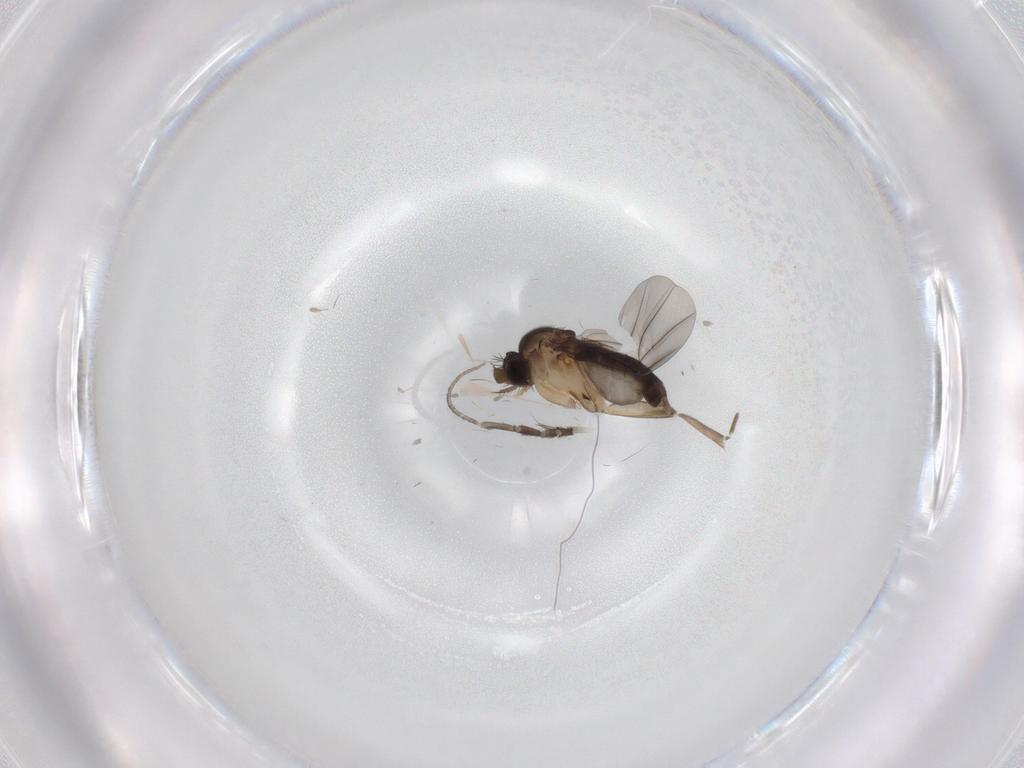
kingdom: Animalia
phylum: Arthropoda
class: Insecta
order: Diptera
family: Phoridae
